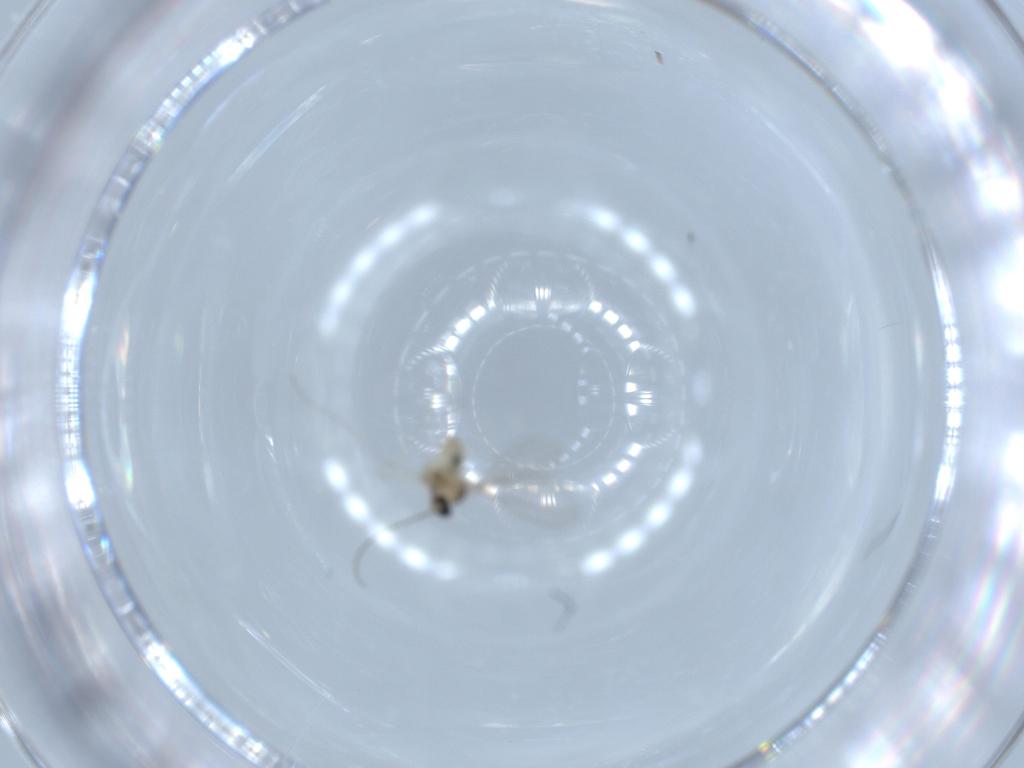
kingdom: Animalia
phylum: Arthropoda
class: Insecta
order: Diptera
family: Cecidomyiidae
